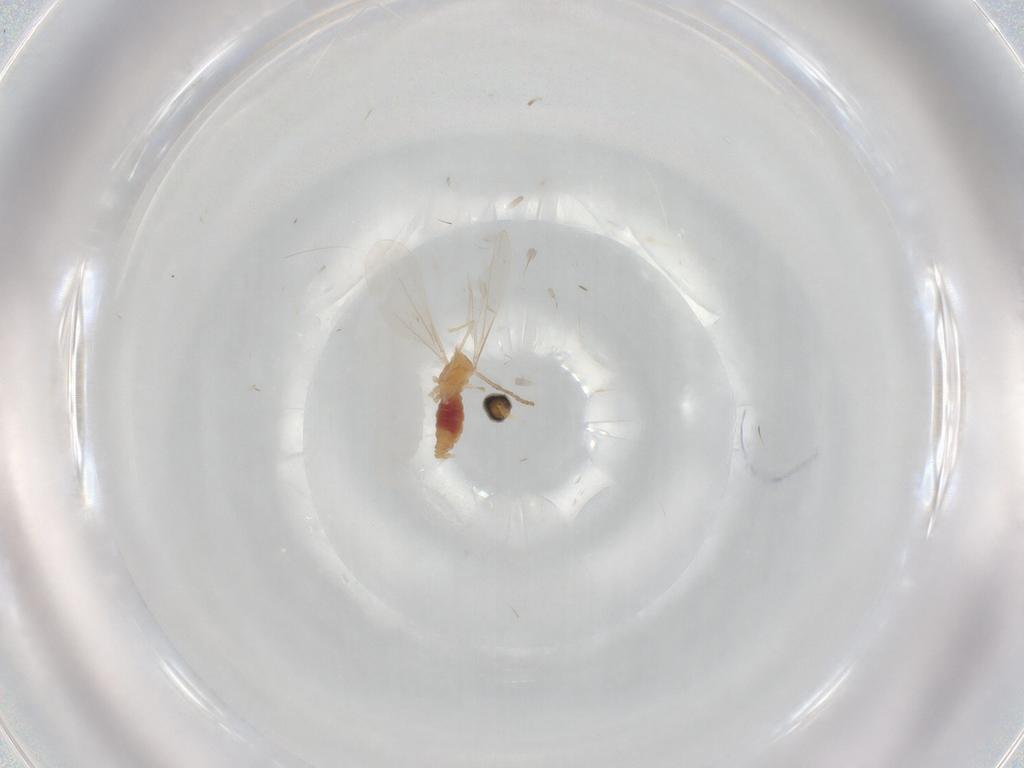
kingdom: Animalia
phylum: Arthropoda
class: Insecta
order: Diptera
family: Cecidomyiidae
